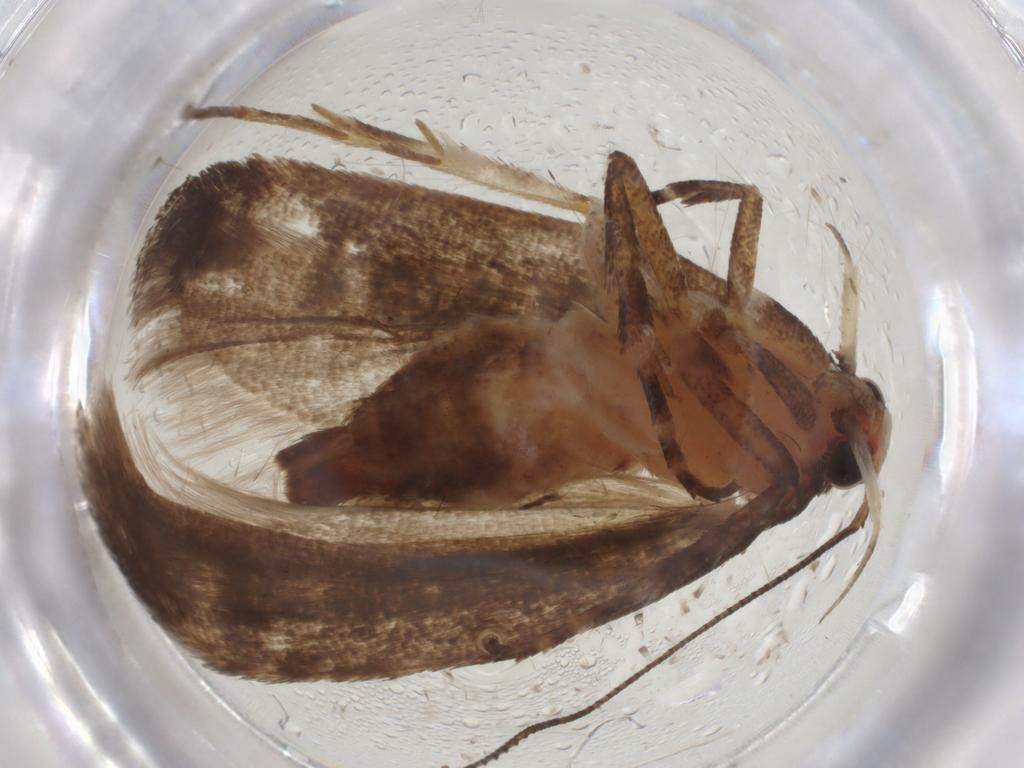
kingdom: Animalia
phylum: Arthropoda
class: Insecta
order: Lepidoptera
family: Gelechiidae
